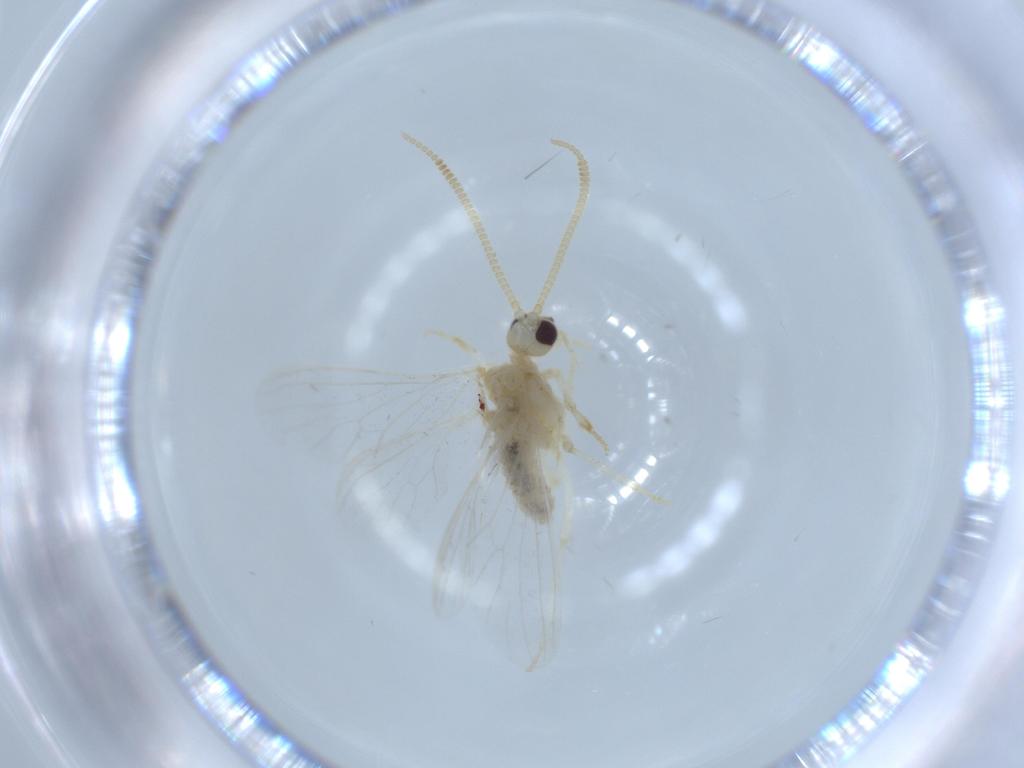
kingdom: Animalia
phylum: Arthropoda
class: Insecta
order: Neuroptera
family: Coniopterygidae
